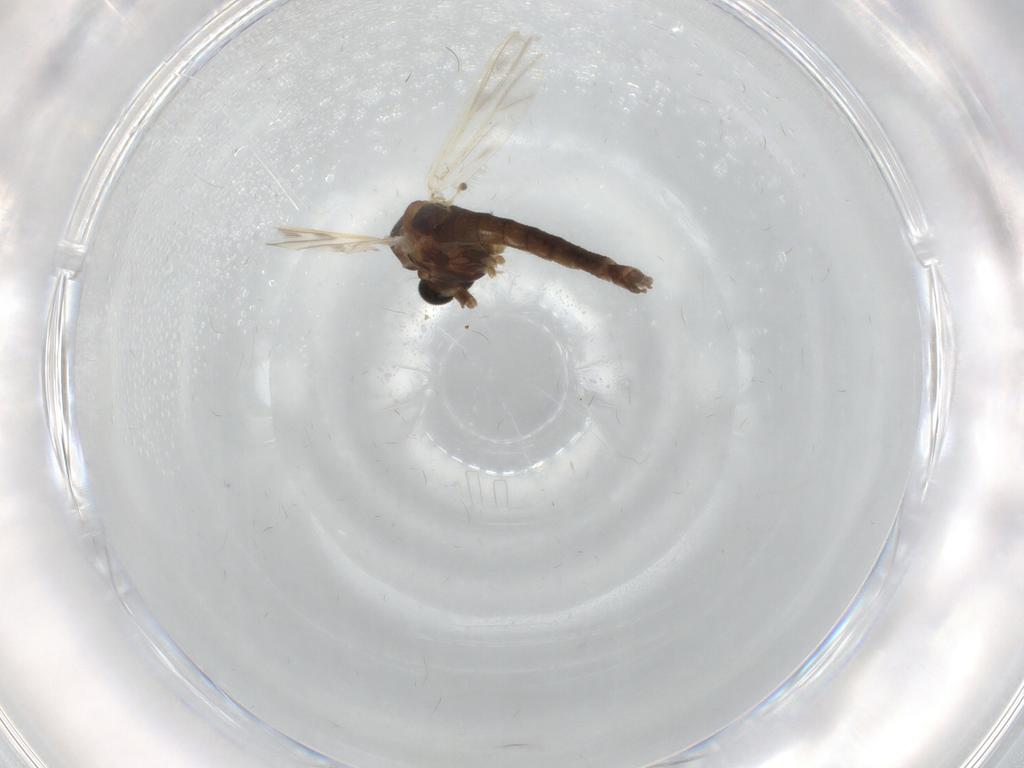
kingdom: Animalia
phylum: Arthropoda
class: Insecta
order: Diptera
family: Chironomidae
